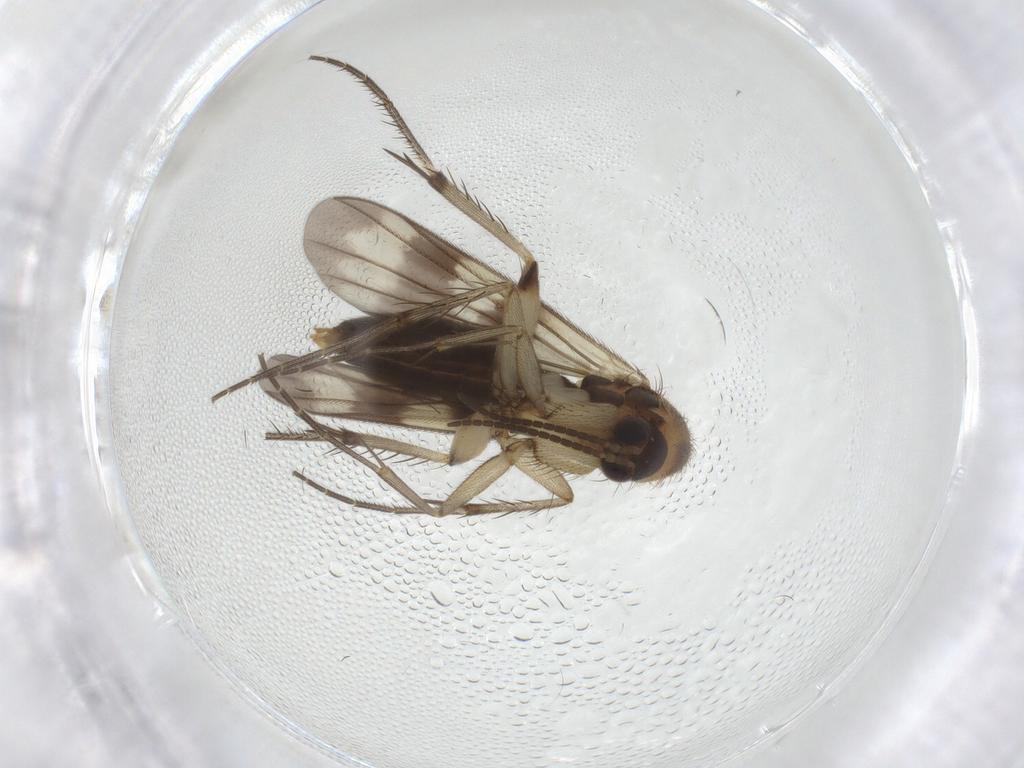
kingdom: Animalia
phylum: Arthropoda
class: Insecta
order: Diptera
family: Mycetophilidae
